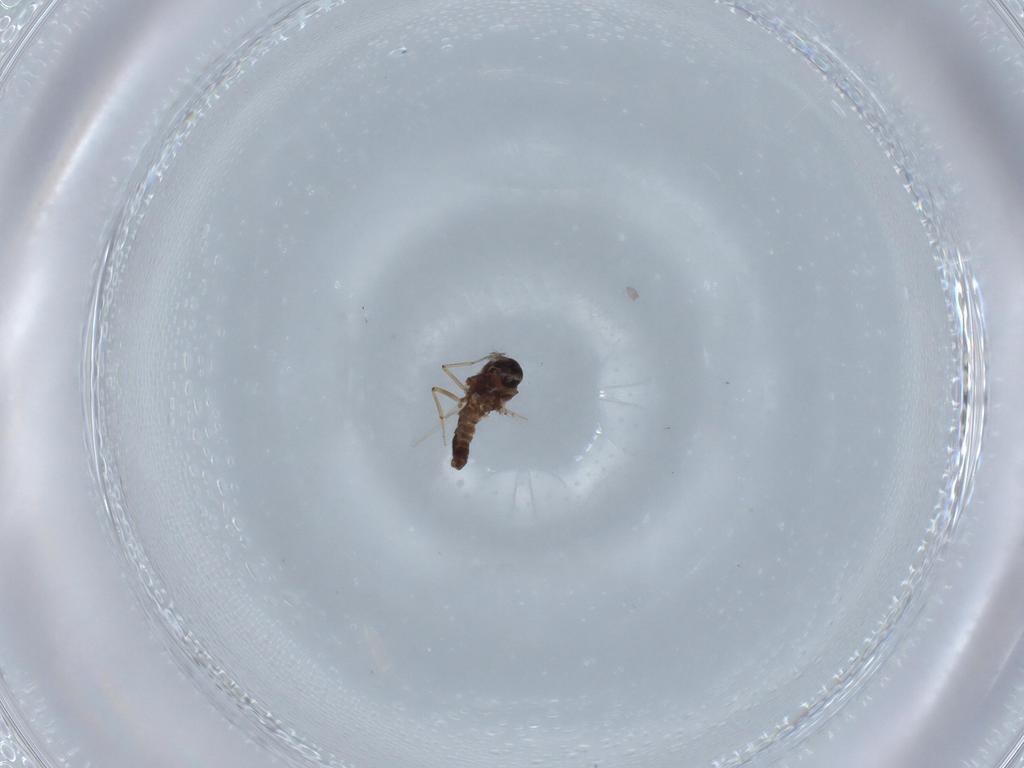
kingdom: Animalia
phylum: Arthropoda
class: Insecta
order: Diptera
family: Ceratopogonidae
